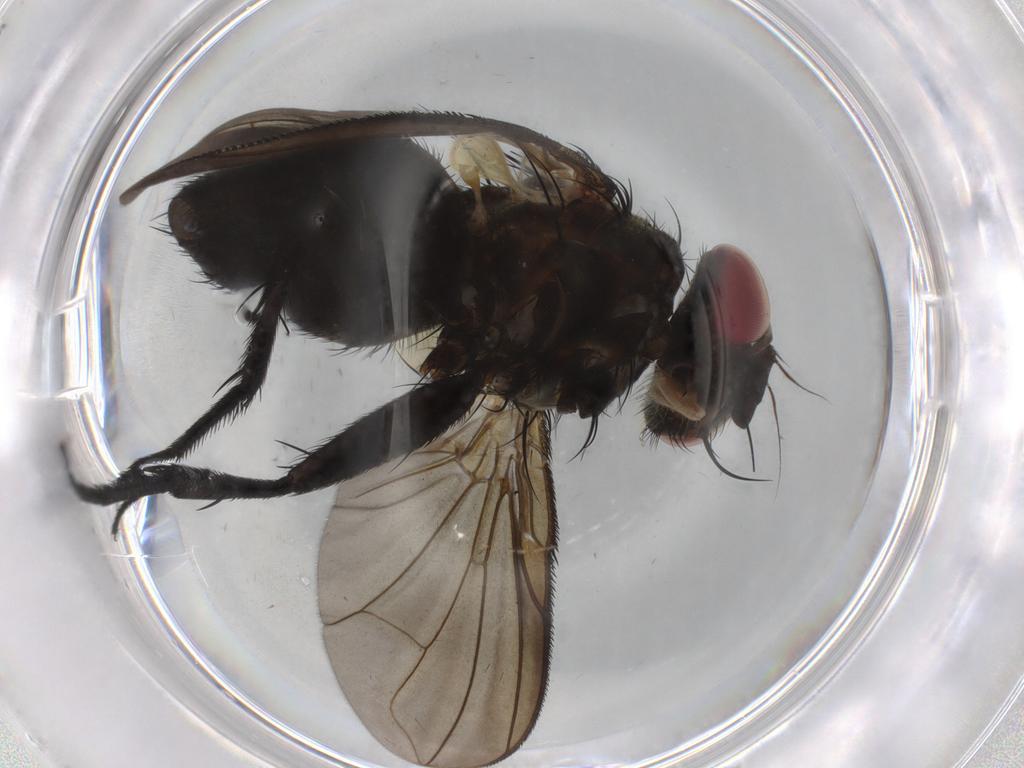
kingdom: Animalia
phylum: Arthropoda
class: Insecta
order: Diptera
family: Cecidomyiidae
